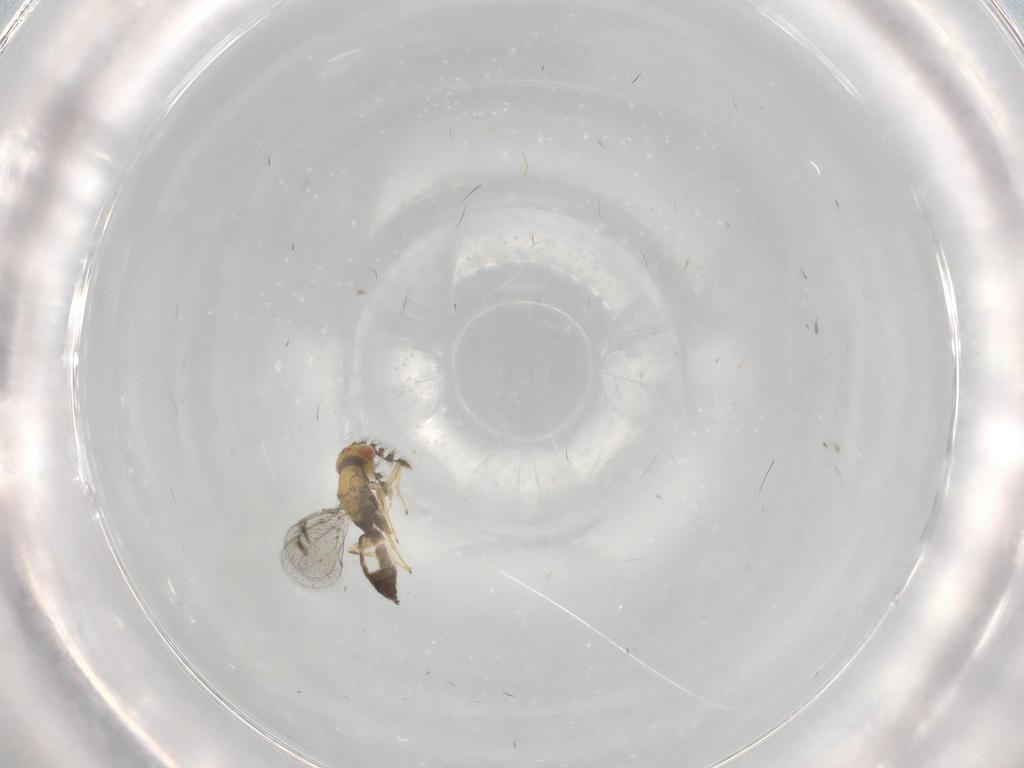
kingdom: Animalia
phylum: Arthropoda
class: Insecta
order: Hymenoptera
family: Eulophidae
